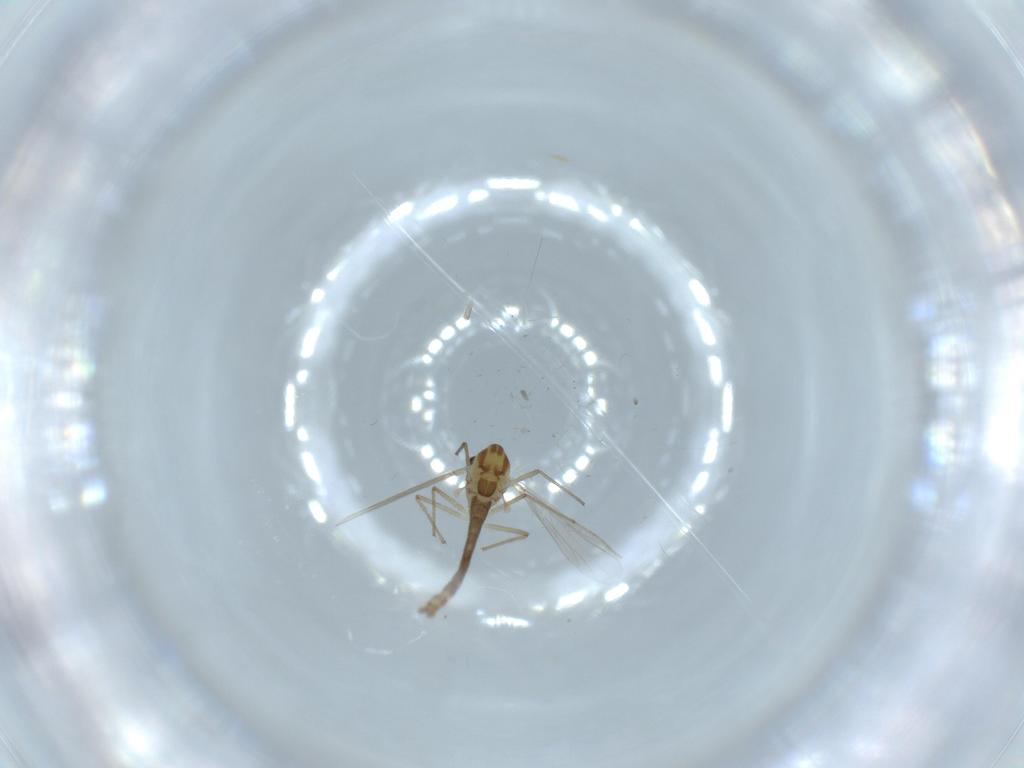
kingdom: Animalia
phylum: Arthropoda
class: Insecta
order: Diptera
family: Chironomidae
